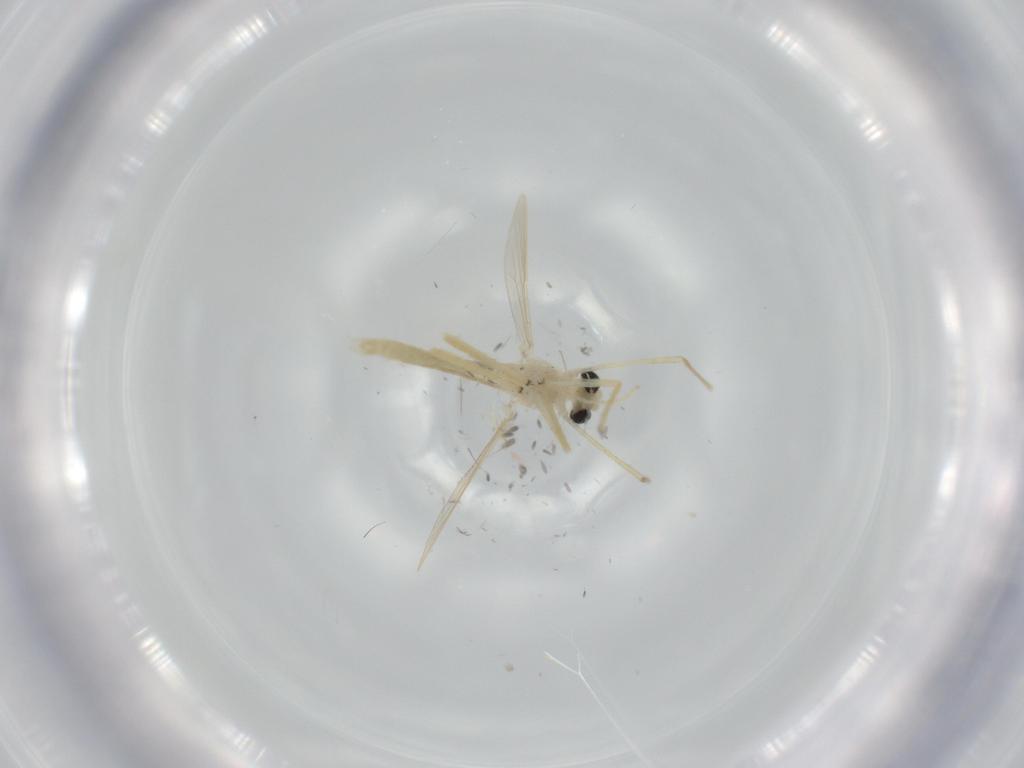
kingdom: Animalia
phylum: Arthropoda
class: Insecta
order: Diptera
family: Chironomidae
